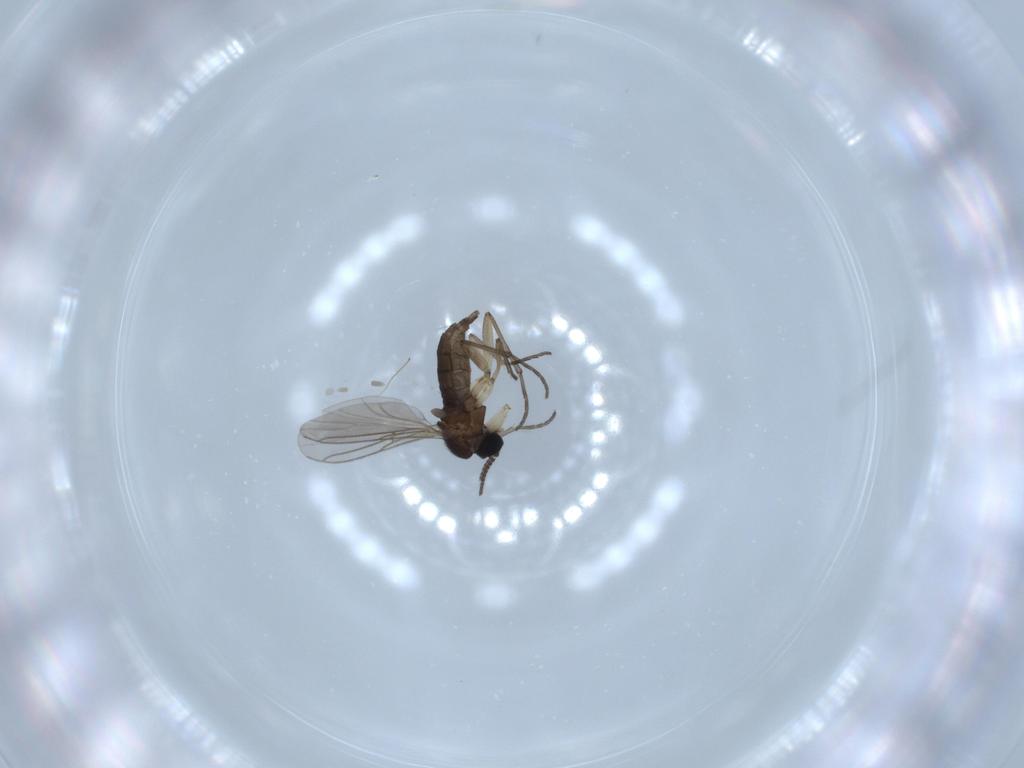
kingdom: Animalia
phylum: Arthropoda
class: Insecta
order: Diptera
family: Sciaridae
